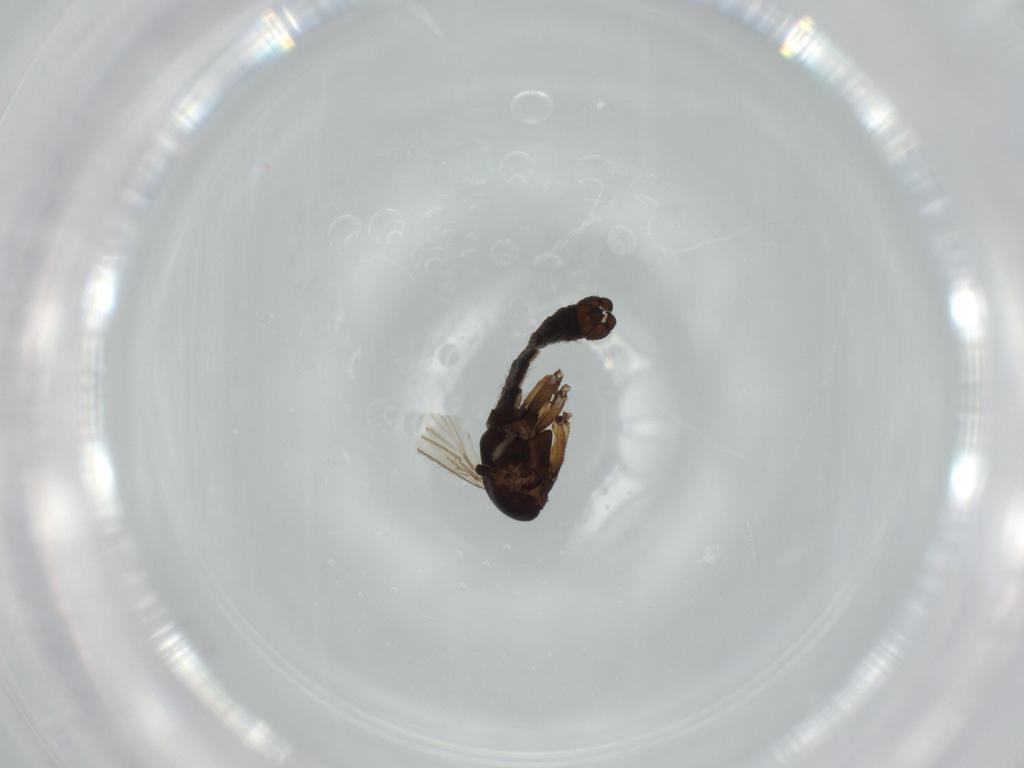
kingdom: Animalia
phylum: Arthropoda
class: Insecta
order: Diptera
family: Sciaridae
